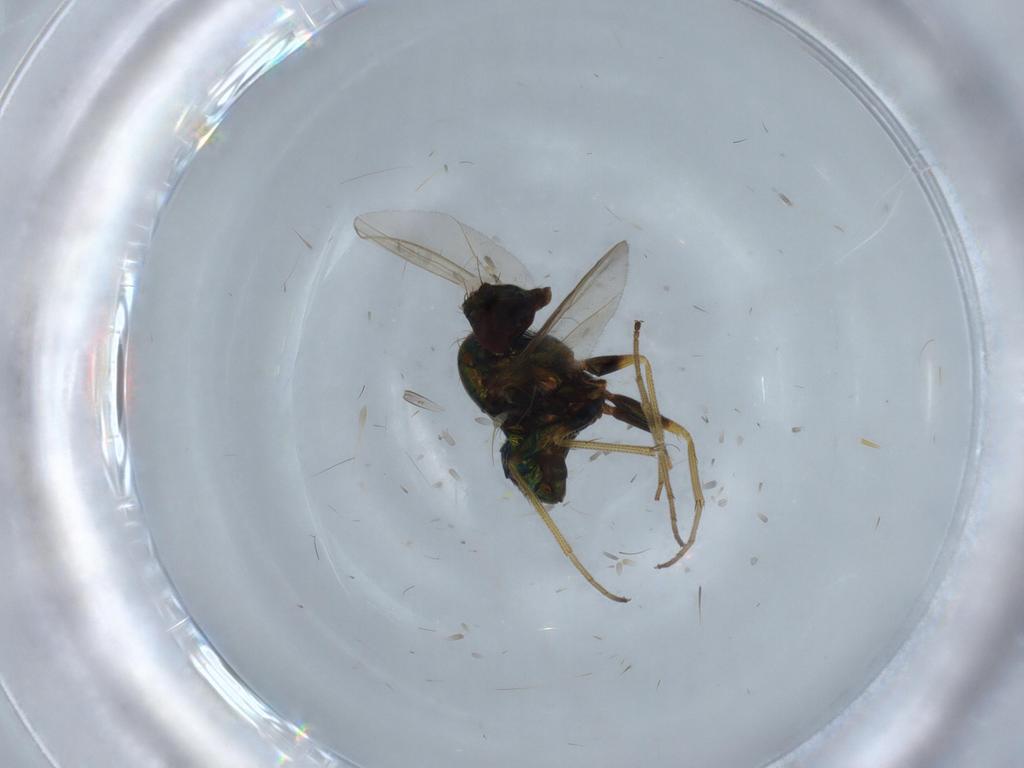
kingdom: Animalia
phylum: Arthropoda
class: Insecta
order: Diptera
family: Dolichopodidae
